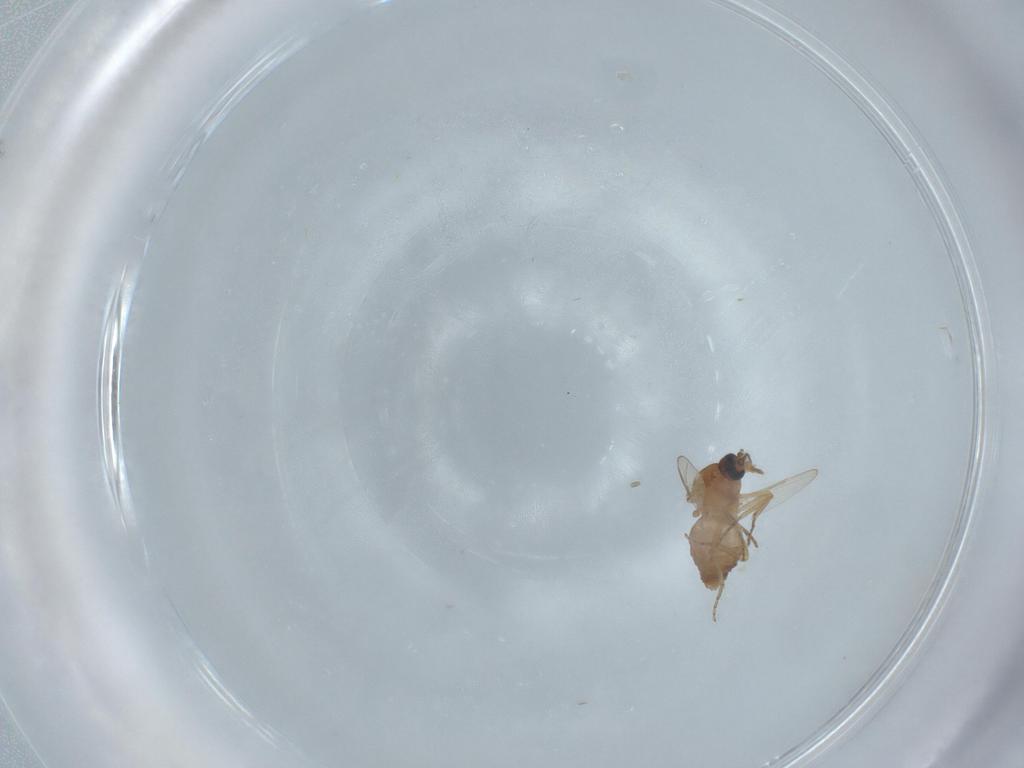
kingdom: Animalia
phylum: Arthropoda
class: Insecta
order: Diptera
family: Ceratopogonidae
